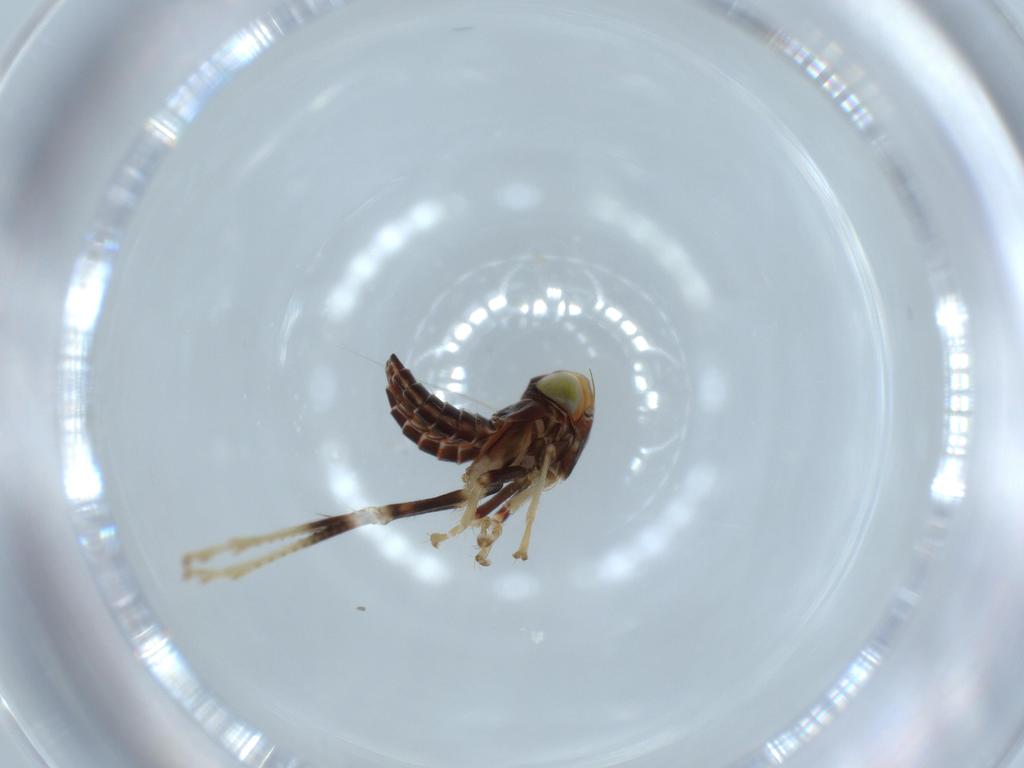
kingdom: Animalia
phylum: Arthropoda
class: Insecta
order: Hemiptera
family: Cicadellidae
